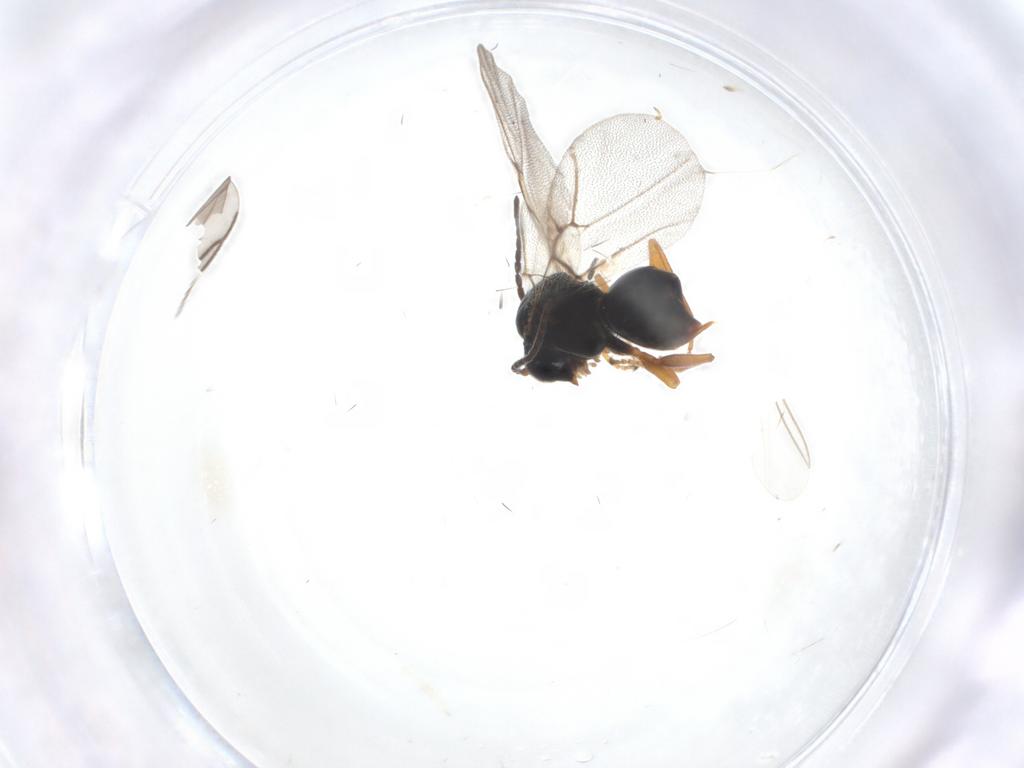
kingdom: Animalia
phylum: Arthropoda
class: Insecta
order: Hymenoptera
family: Cynipidae
